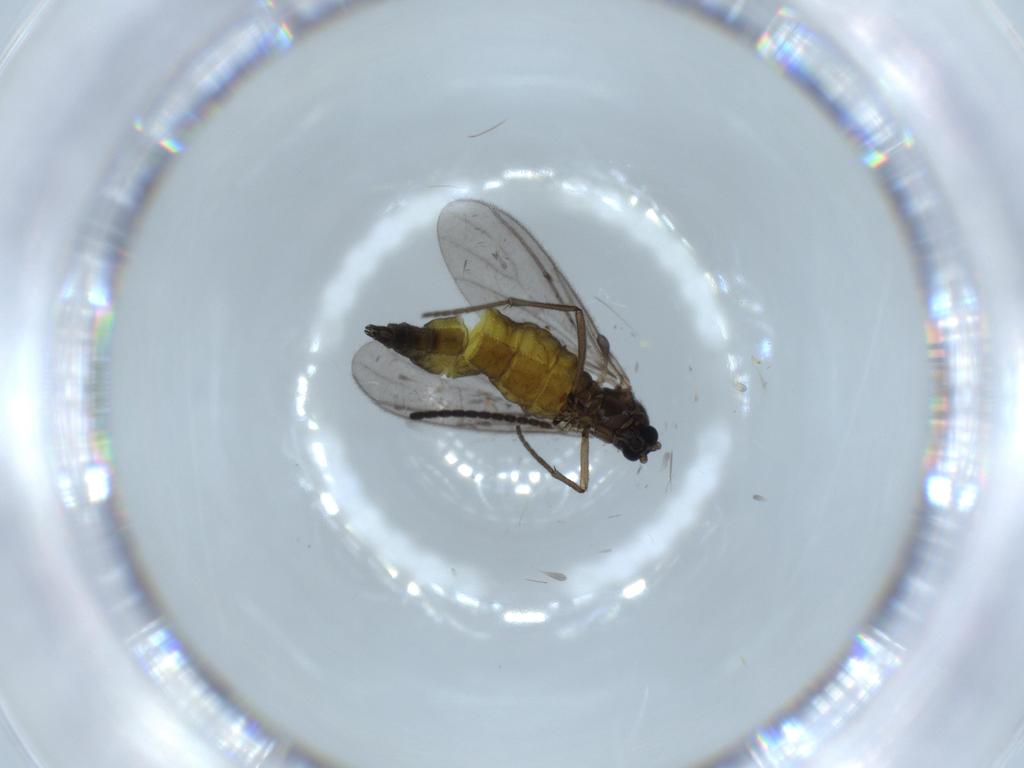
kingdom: Animalia
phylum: Arthropoda
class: Insecta
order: Diptera
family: Sciaridae
